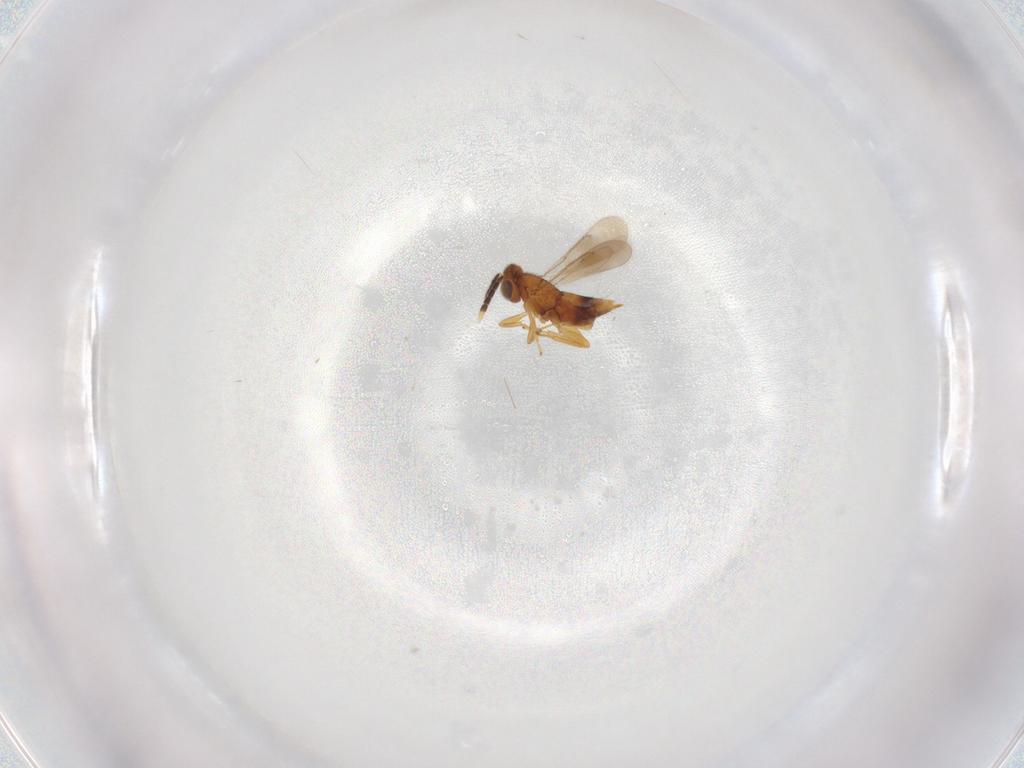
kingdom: Animalia
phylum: Arthropoda
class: Insecta
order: Hymenoptera
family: Aphelinidae
